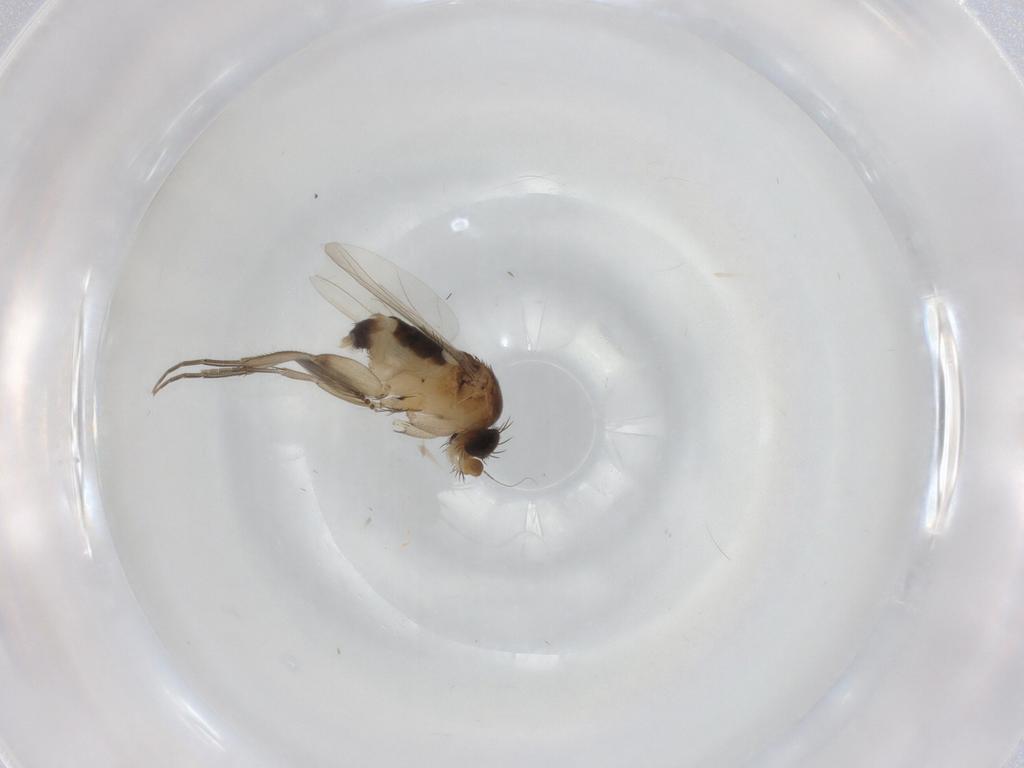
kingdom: Animalia
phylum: Arthropoda
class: Insecta
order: Diptera
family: Phoridae
